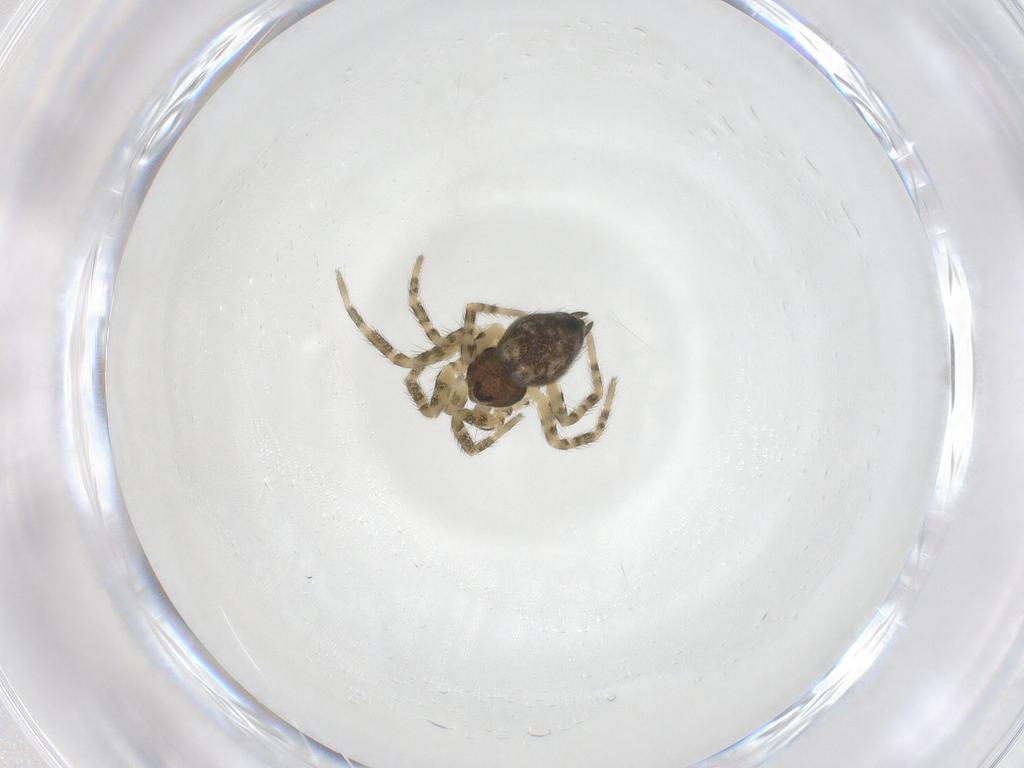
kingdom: Animalia
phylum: Arthropoda
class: Arachnida
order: Araneae
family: Oecobiidae
